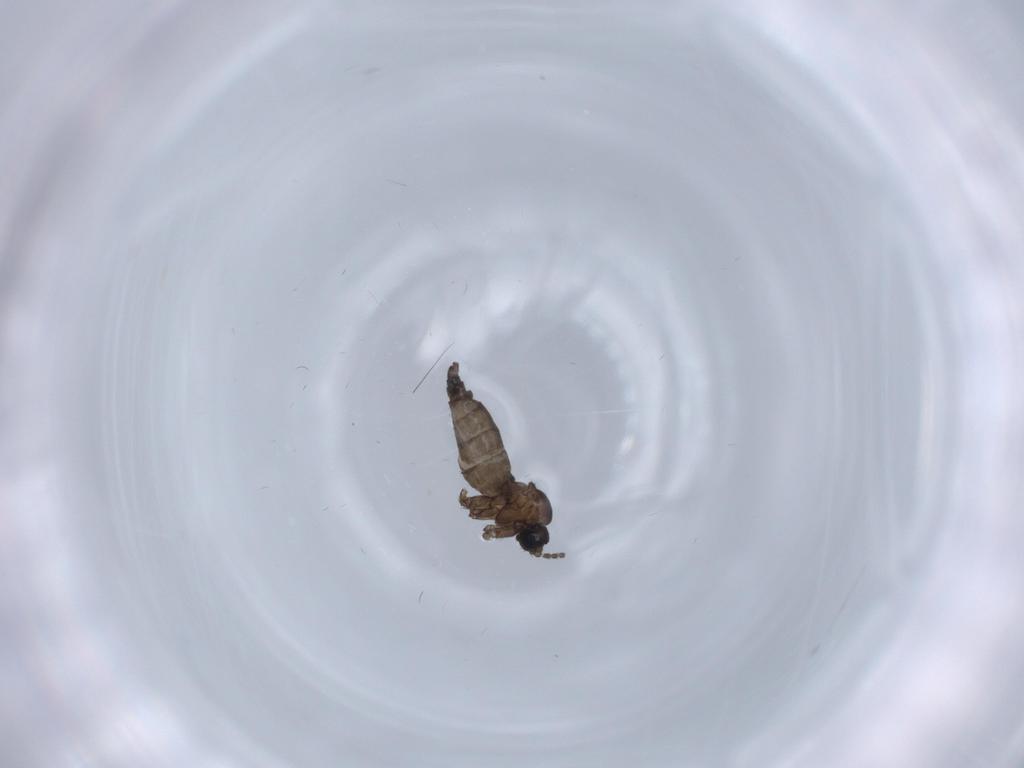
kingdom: Animalia
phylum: Arthropoda
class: Insecta
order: Diptera
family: Sciaridae
